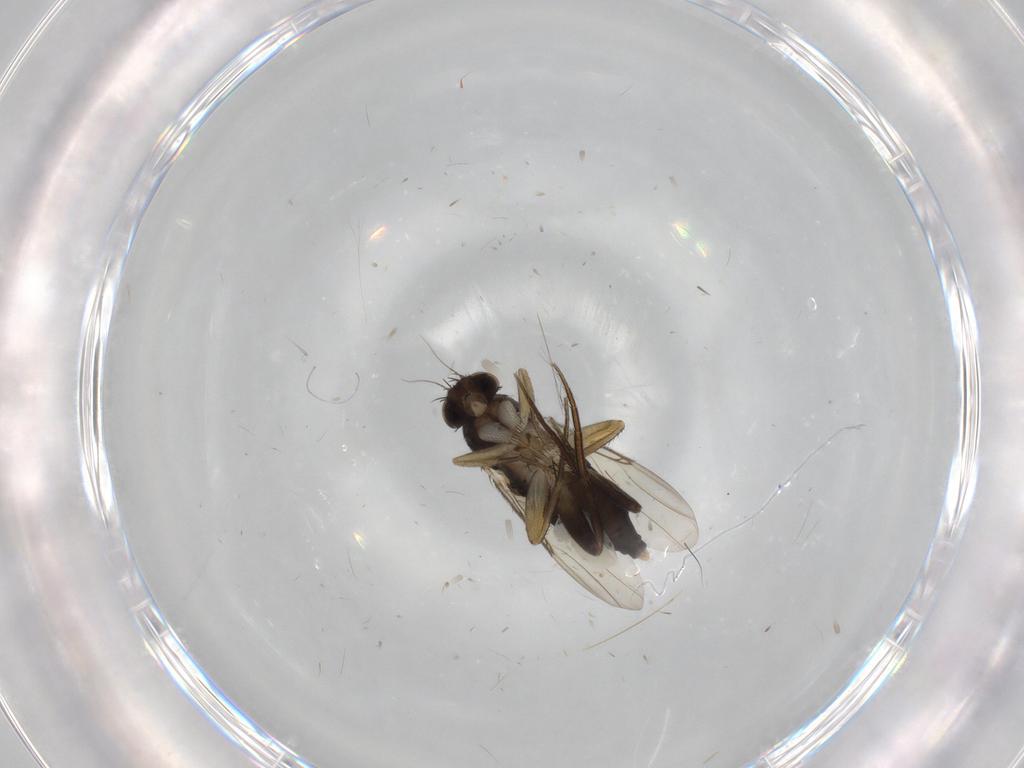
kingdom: Animalia
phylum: Arthropoda
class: Insecta
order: Diptera
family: Phoridae
